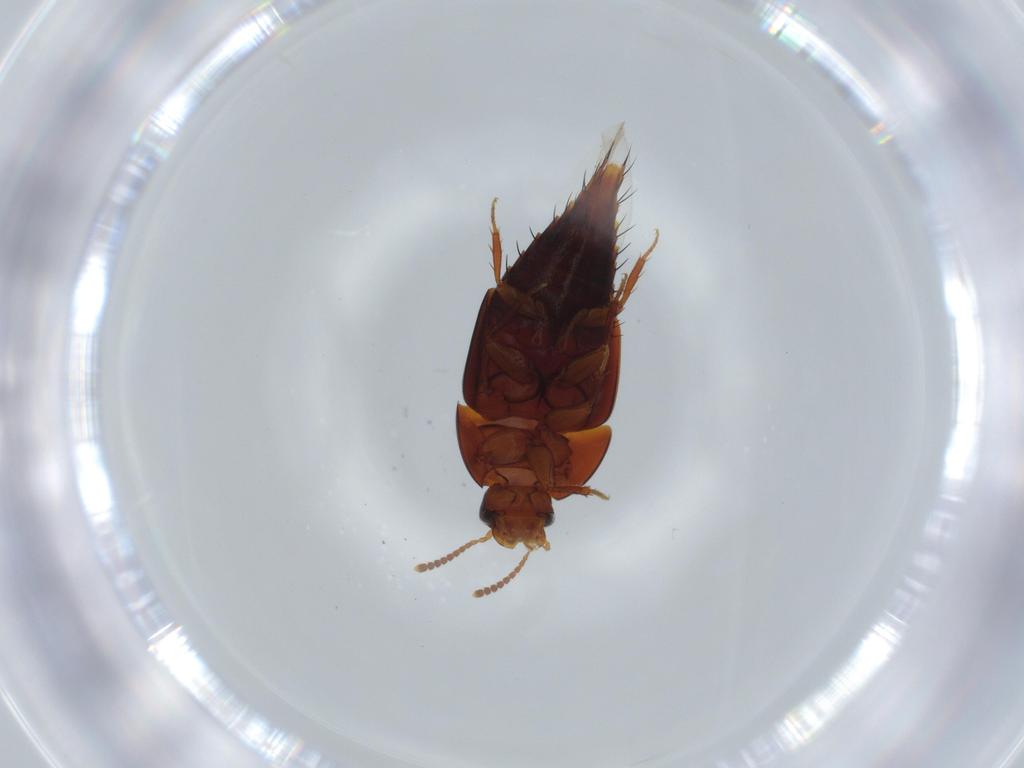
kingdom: Animalia
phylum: Arthropoda
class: Insecta
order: Coleoptera
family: Staphylinidae
